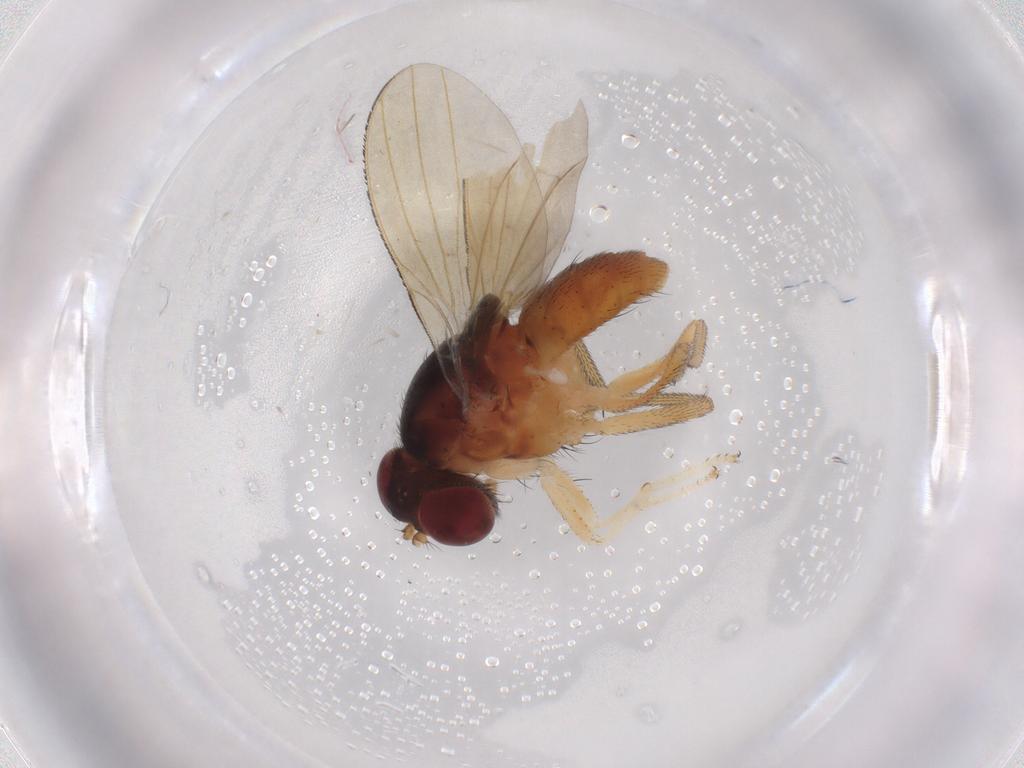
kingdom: Animalia
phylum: Arthropoda
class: Insecta
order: Diptera
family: Lauxaniidae
